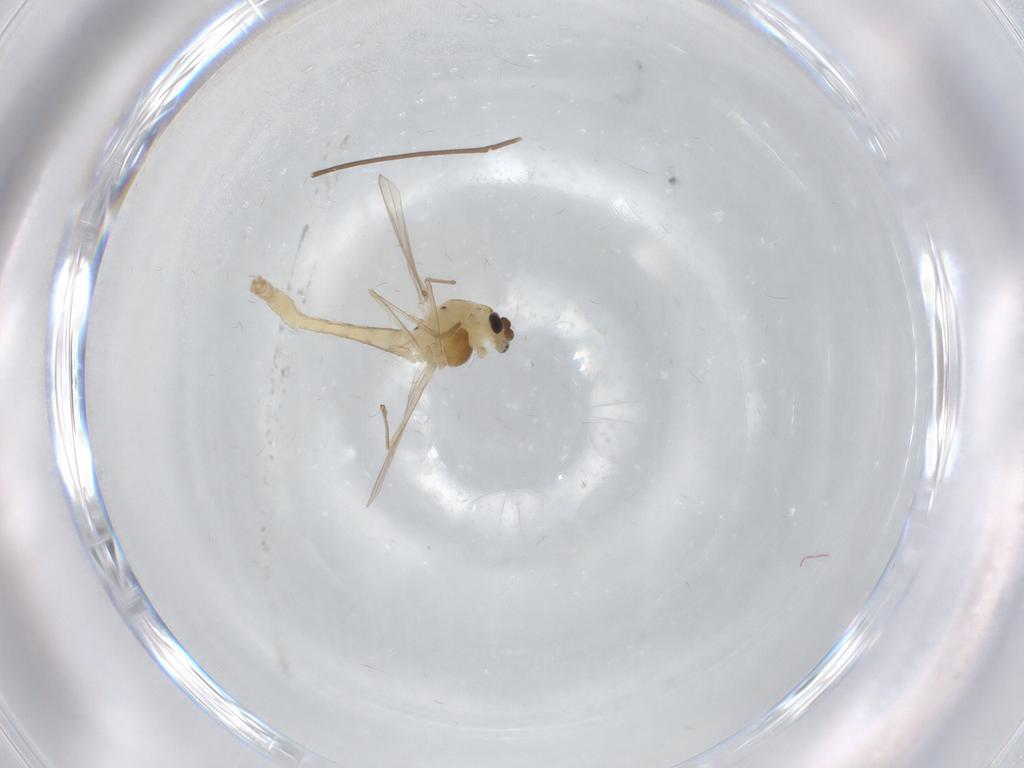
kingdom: Animalia
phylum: Arthropoda
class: Insecta
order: Diptera
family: Chironomidae
